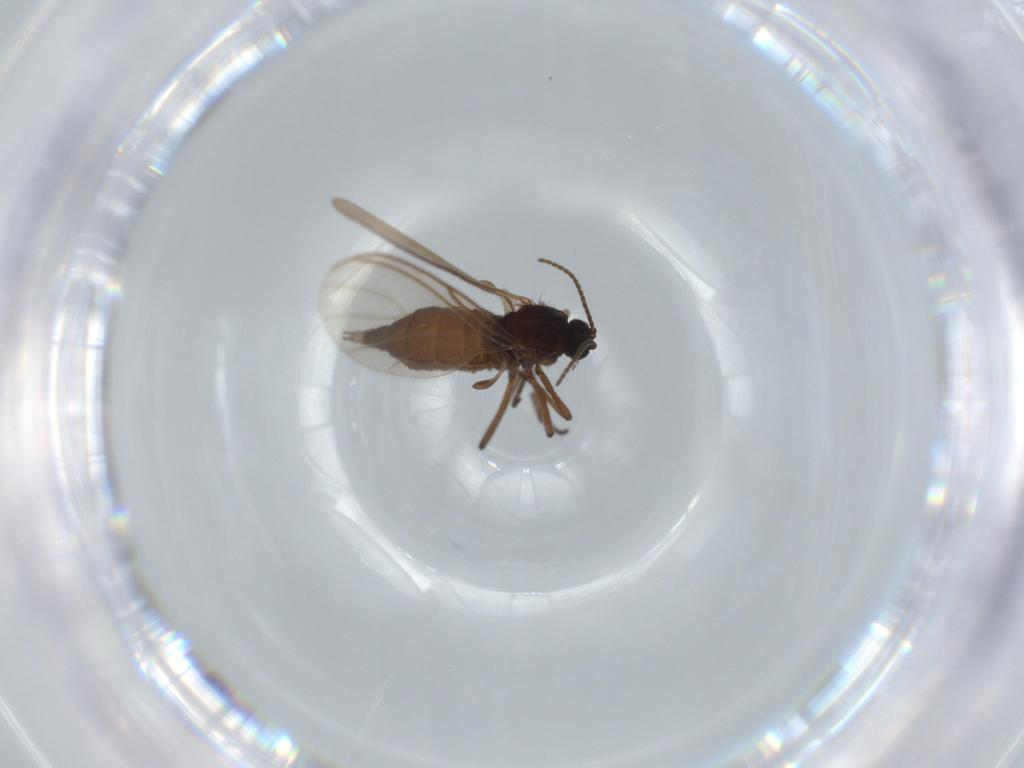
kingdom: Animalia
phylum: Arthropoda
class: Insecta
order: Diptera
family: Sciaridae
